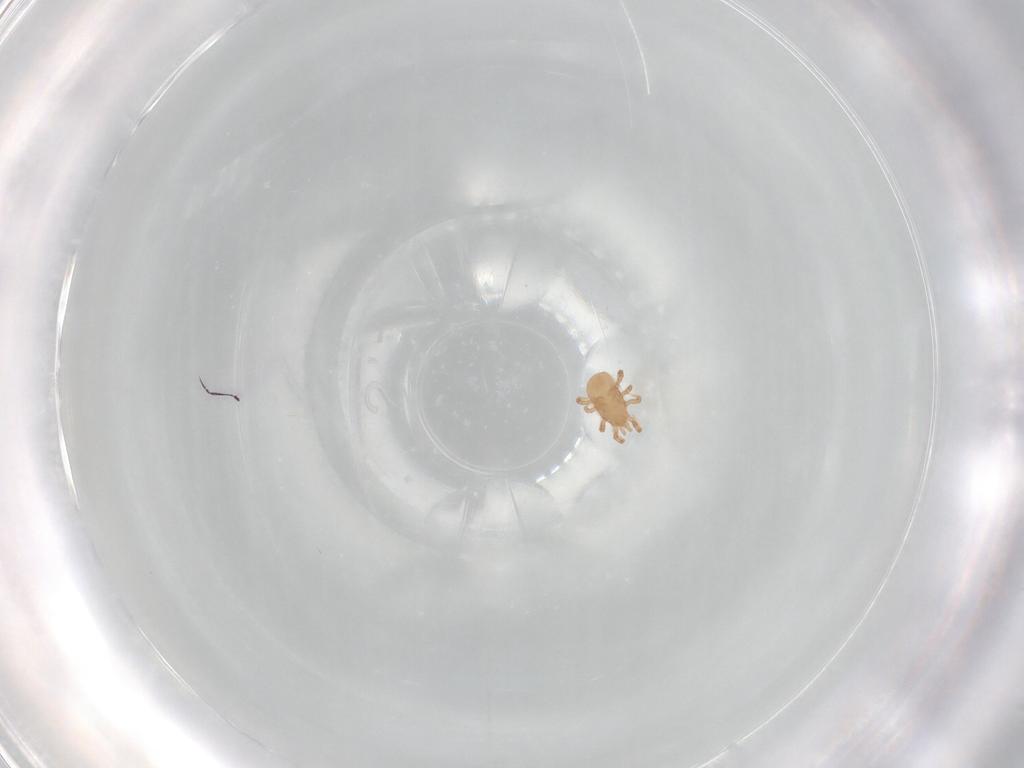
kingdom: Animalia
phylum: Arthropoda
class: Arachnida
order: Mesostigmata
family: Ascidae
